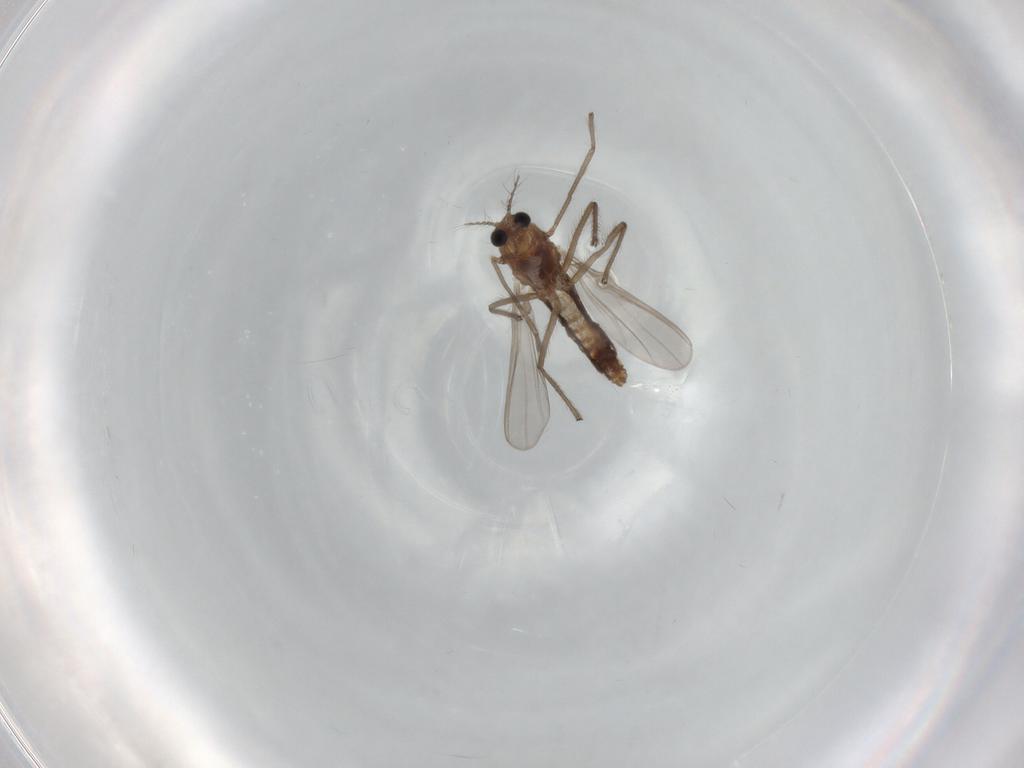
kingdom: Animalia
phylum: Arthropoda
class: Insecta
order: Diptera
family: Chironomidae
